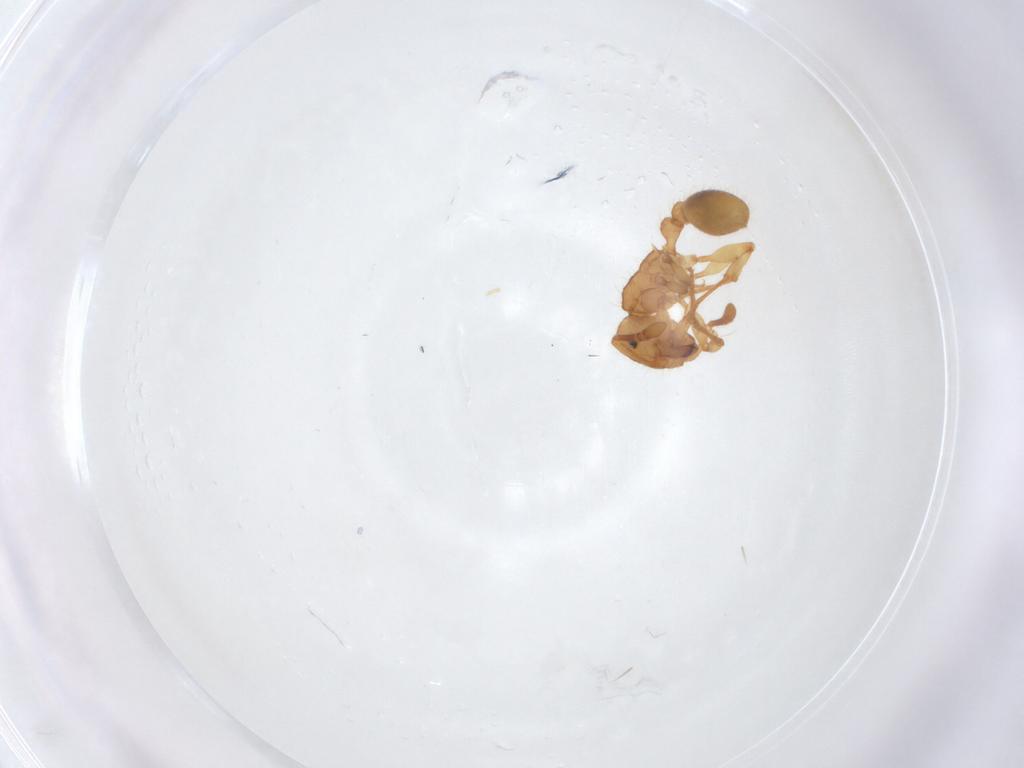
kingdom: Animalia
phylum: Arthropoda
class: Insecta
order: Hymenoptera
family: Formicidae
